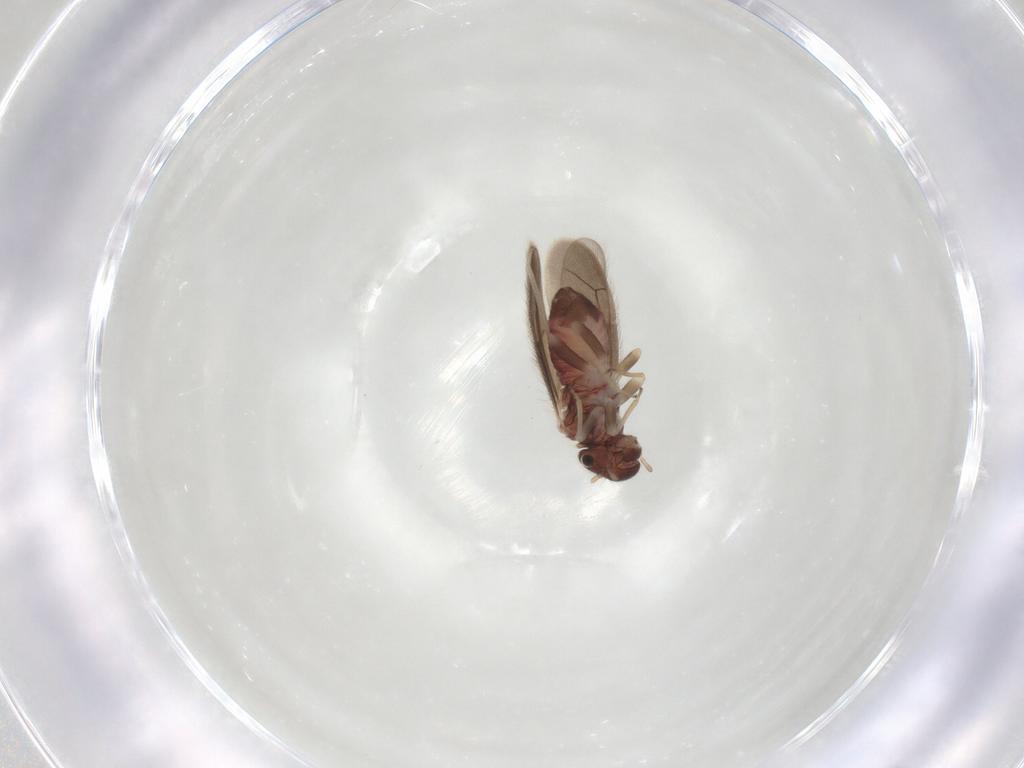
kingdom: Animalia
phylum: Arthropoda
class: Insecta
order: Psocodea
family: Archipsocidae
